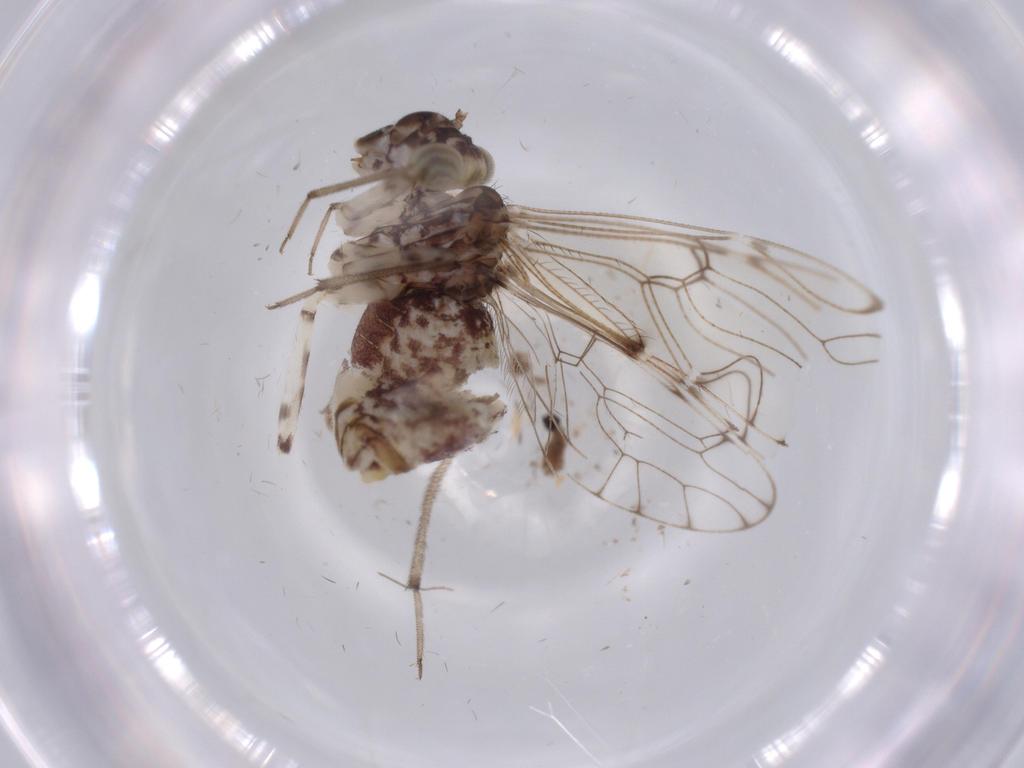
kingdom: Animalia
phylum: Arthropoda
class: Insecta
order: Psocodea
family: Ptiloneuridae
